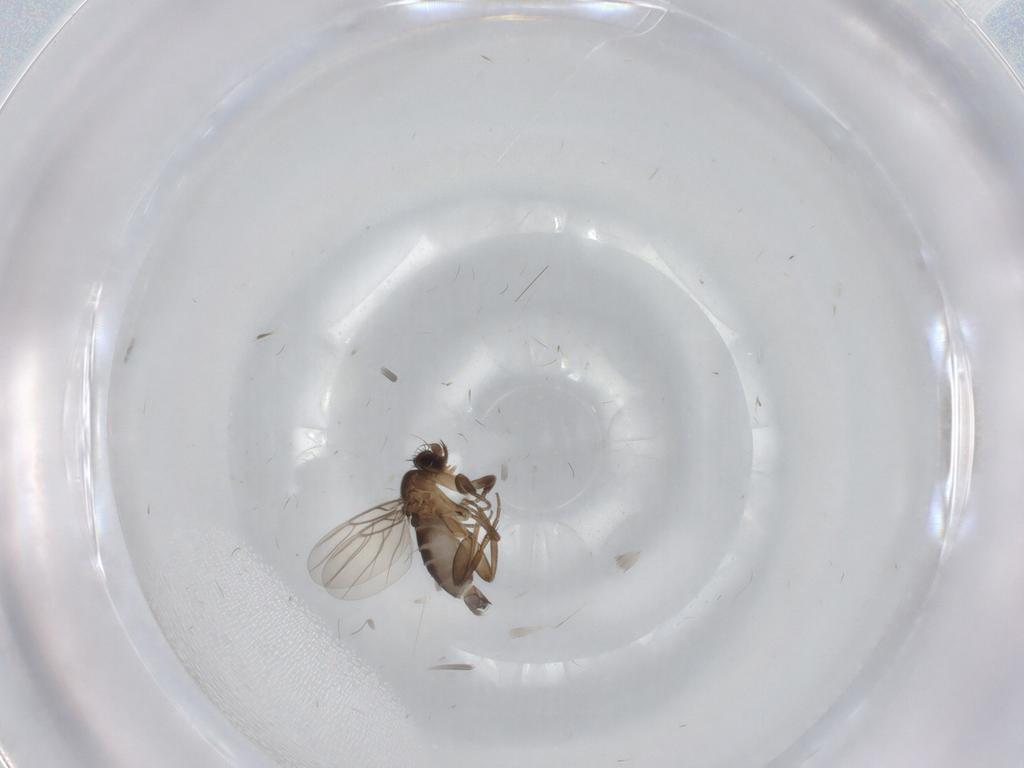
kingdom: Animalia
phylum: Arthropoda
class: Insecta
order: Diptera
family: Phoridae
